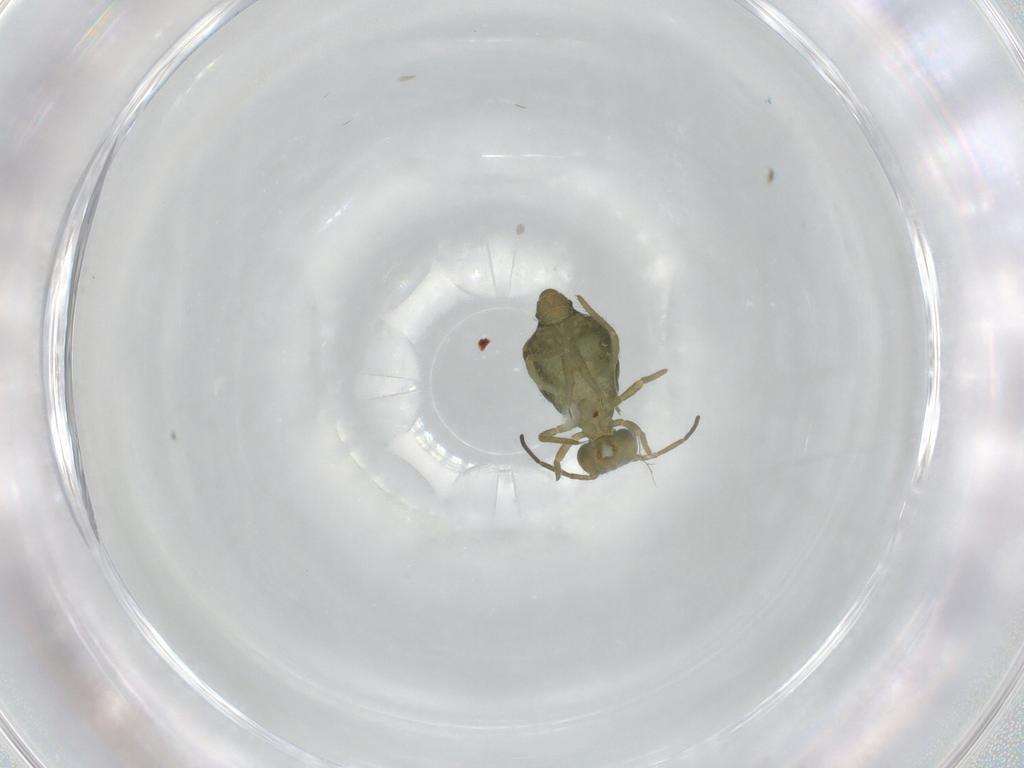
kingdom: Animalia
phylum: Arthropoda
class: Collembola
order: Symphypleona
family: Sminthuridae
